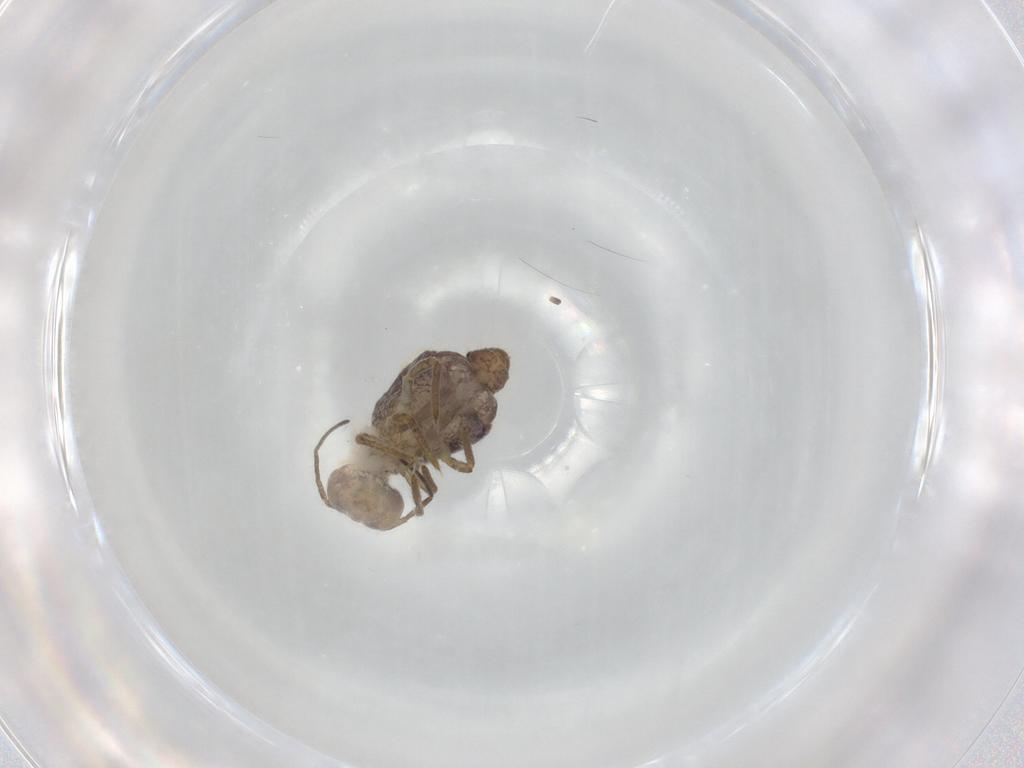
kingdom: Animalia
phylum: Arthropoda
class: Collembola
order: Symphypleona
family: Sminthuridae
